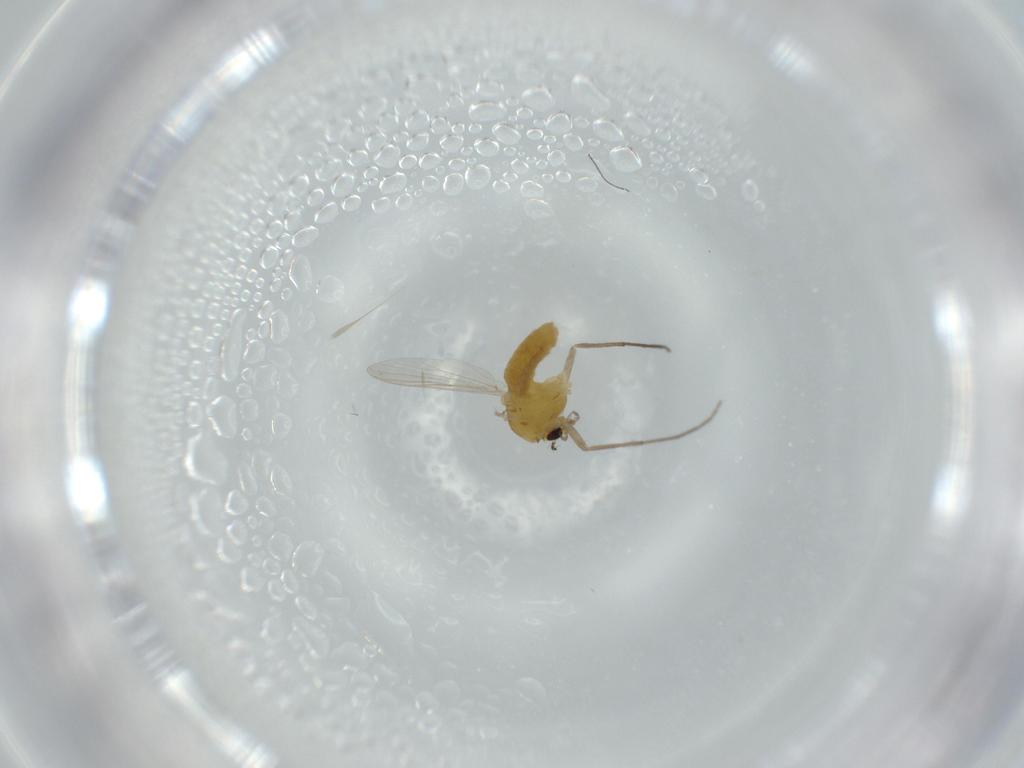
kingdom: Animalia
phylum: Arthropoda
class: Insecta
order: Diptera
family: Chironomidae
